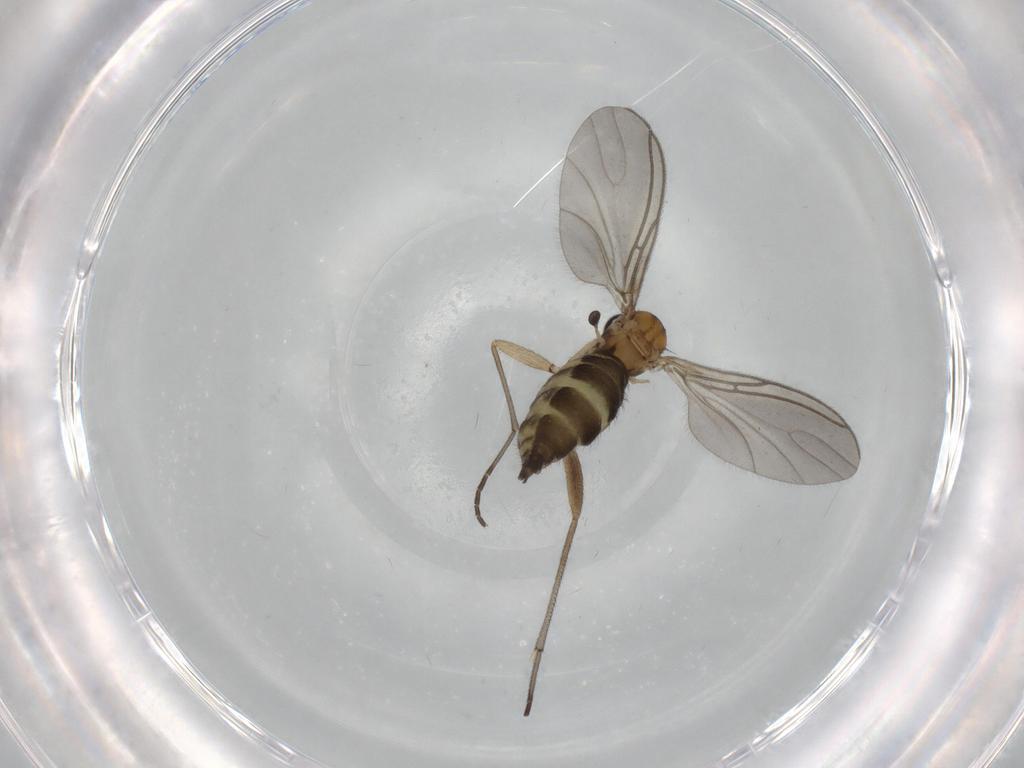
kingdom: Animalia
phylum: Arthropoda
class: Insecta
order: Diptera
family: Sciaridae
